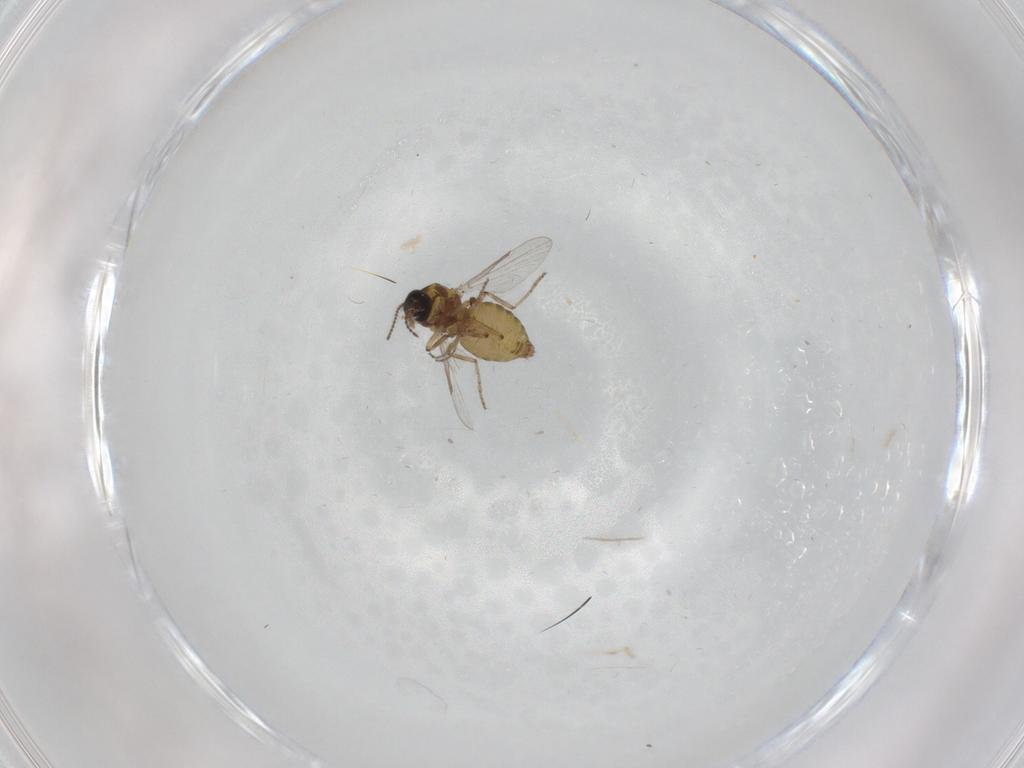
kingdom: Animalia
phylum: Arthropoda
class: Insecta
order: Diptera
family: Ceratopogonidae
